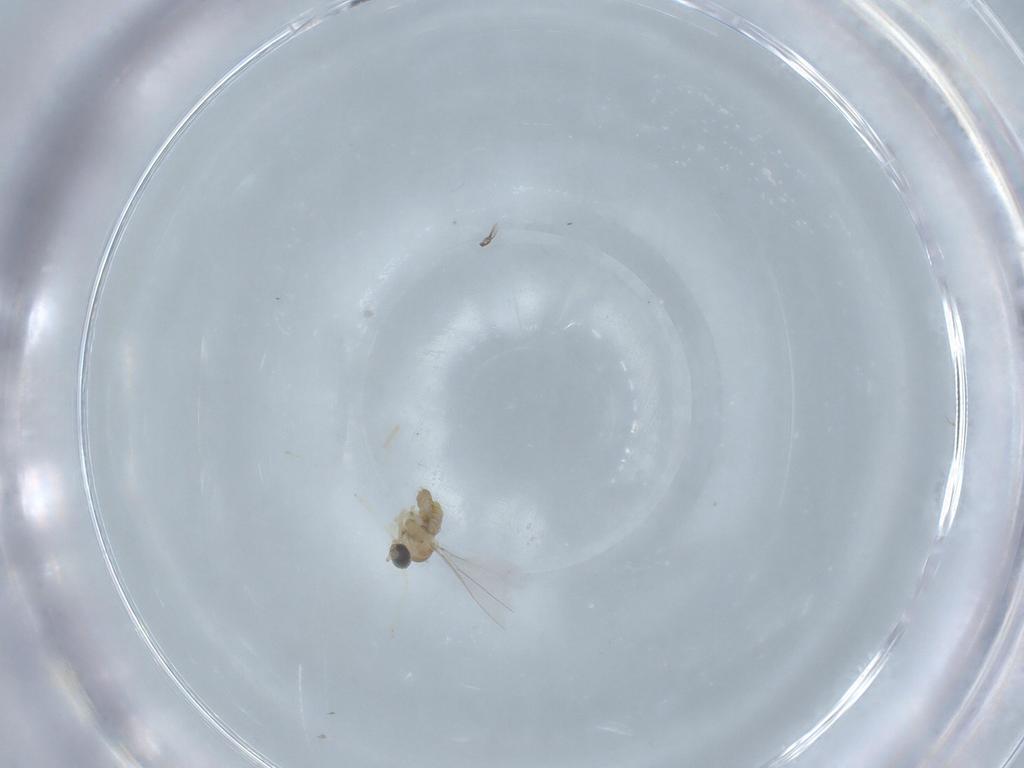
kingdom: Animalia
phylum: Arthropoda
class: Insecta
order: Diptera
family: Cecidomyiidae
